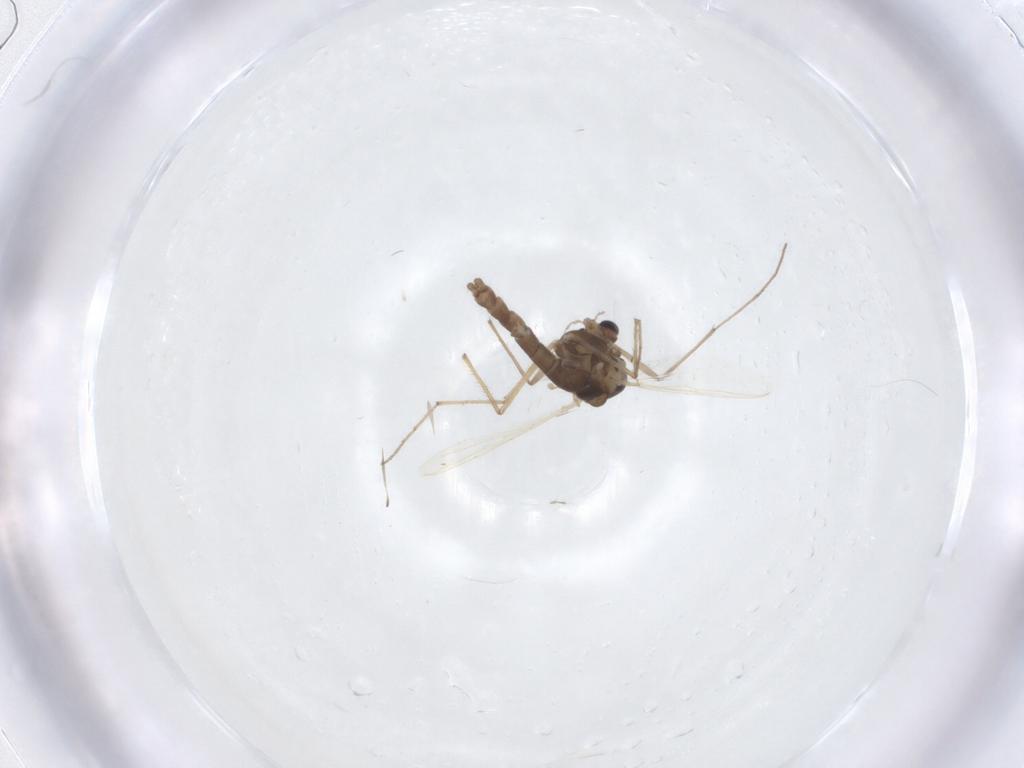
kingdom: Animalia
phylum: Arthropoda
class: Insecta
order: Diptera
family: Chironomidae
